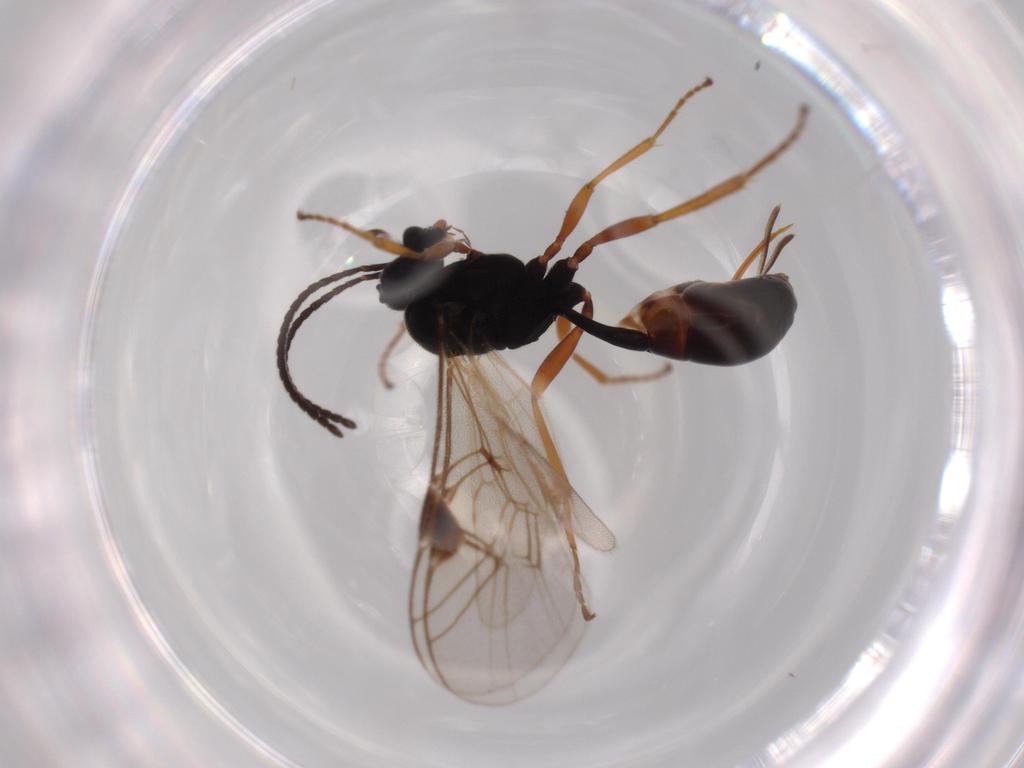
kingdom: Animalia
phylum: Arthropoda
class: Insecta
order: Hymenoptera
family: Ichneumonidae
